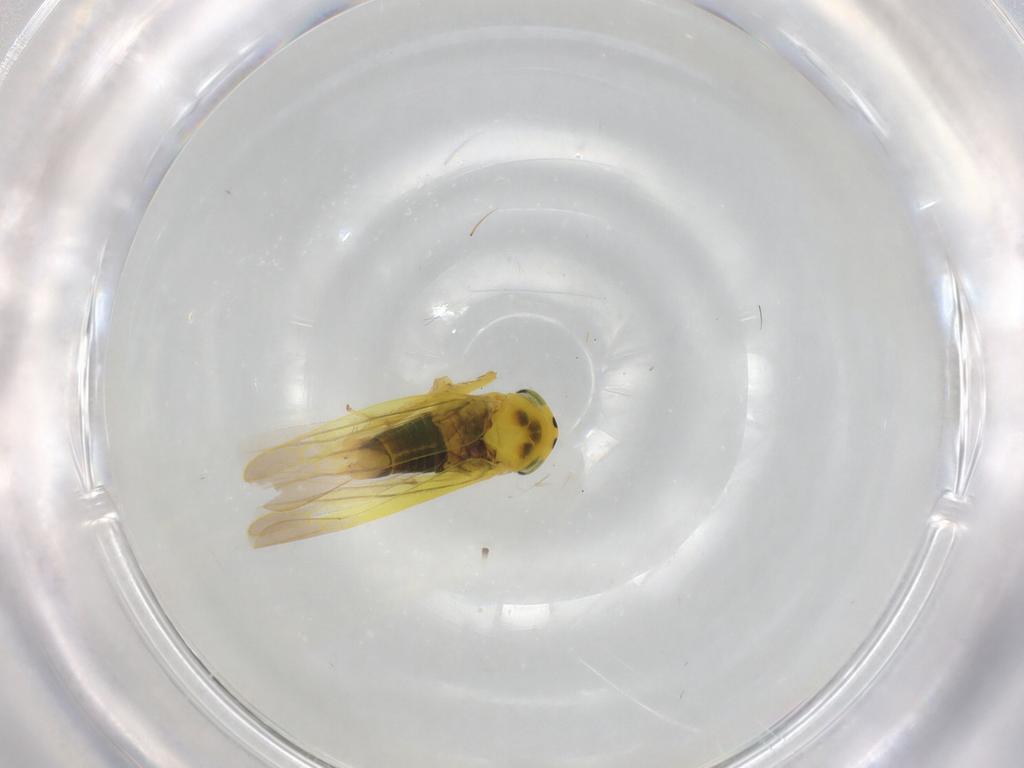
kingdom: Animalia
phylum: Arthropoda
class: Insecta
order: Hemiptera
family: Cicadellidae
